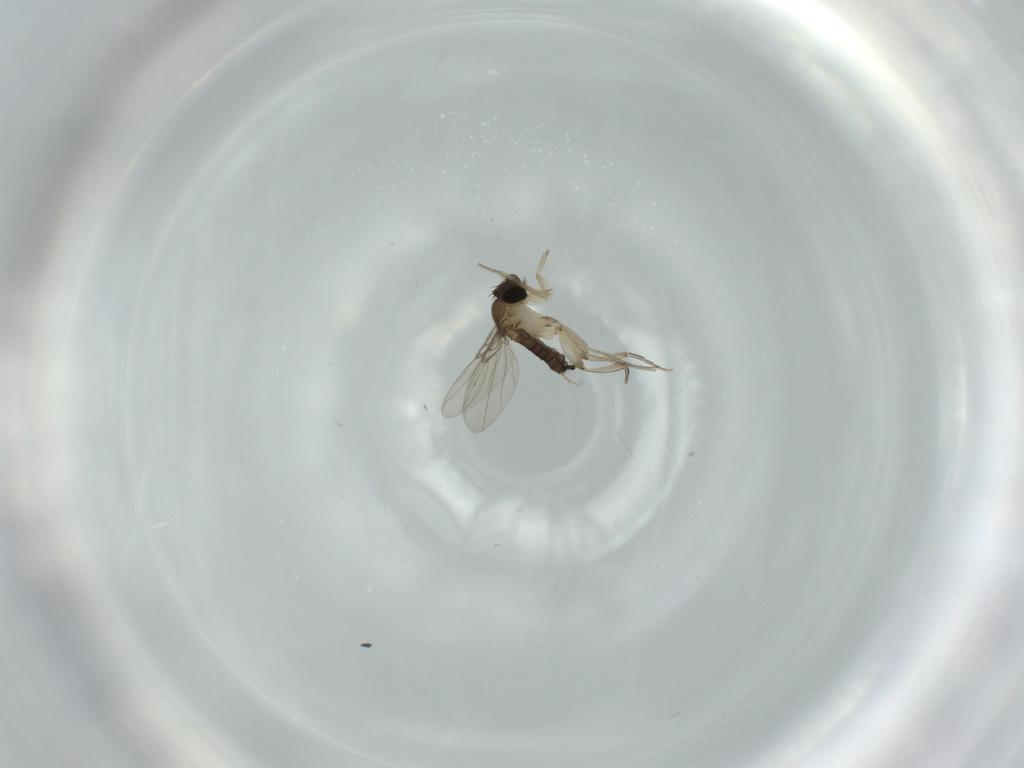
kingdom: Animalia
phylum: Arthropoda
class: Insecta
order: Diptera
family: Phoridae
